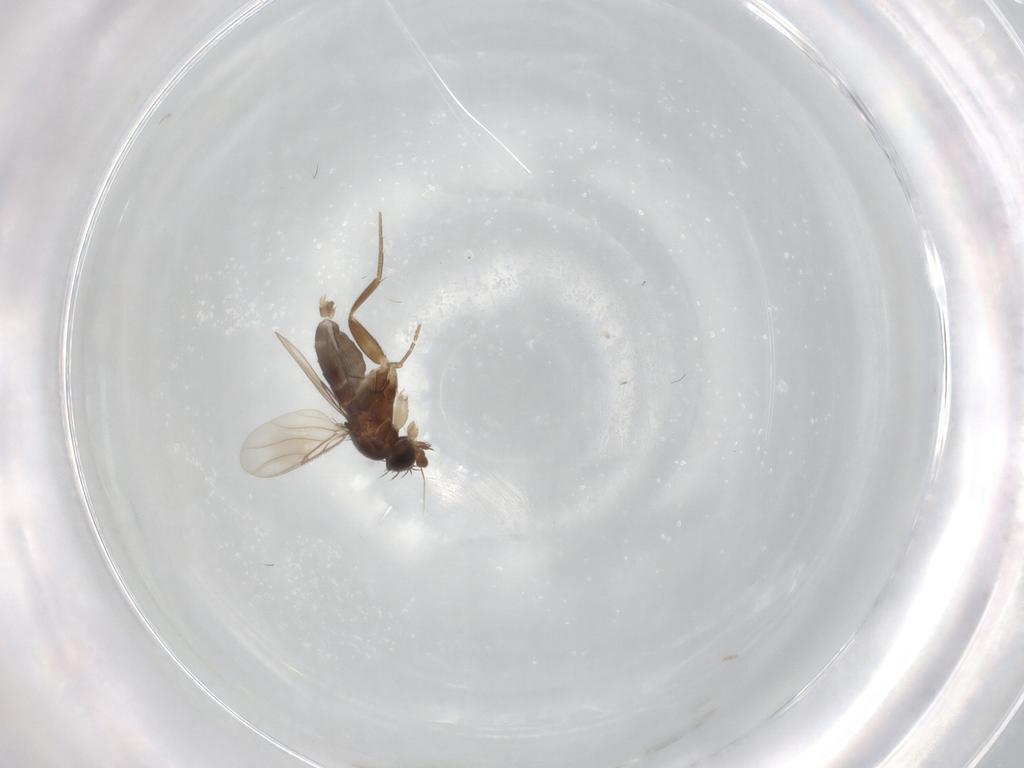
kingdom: Animalia
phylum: Arthropoda
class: Insecta
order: Diptera
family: Phoridae
